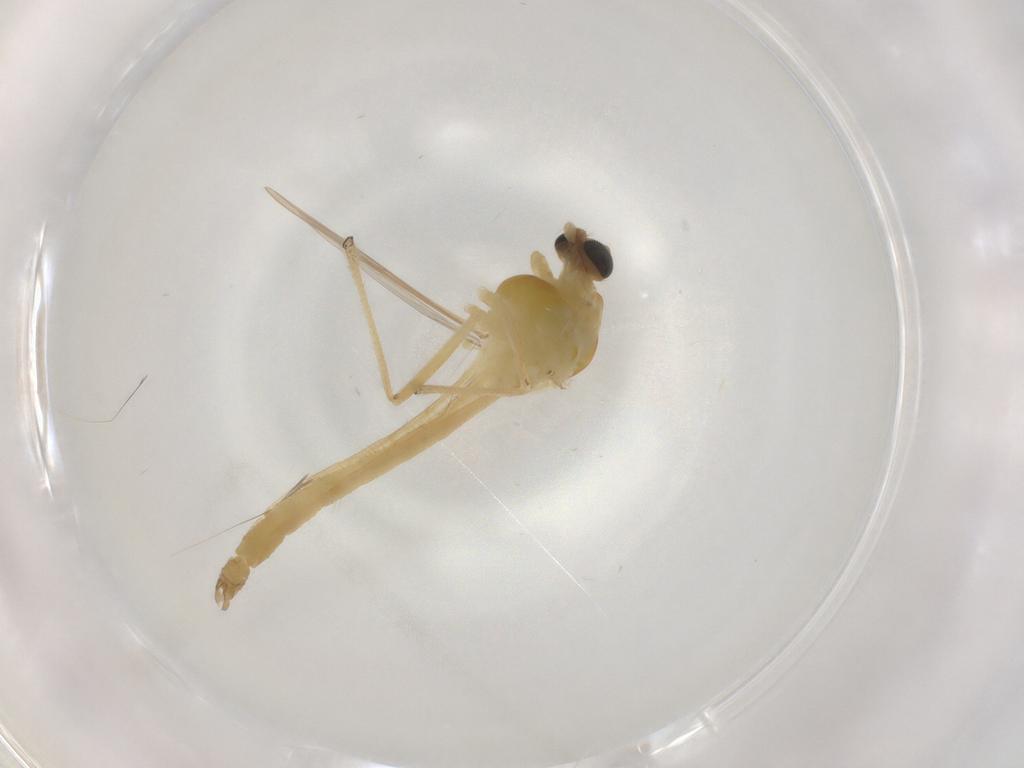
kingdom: Animalia
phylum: Arthropoda
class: Insecta
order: Diptera
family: Chironomidae
